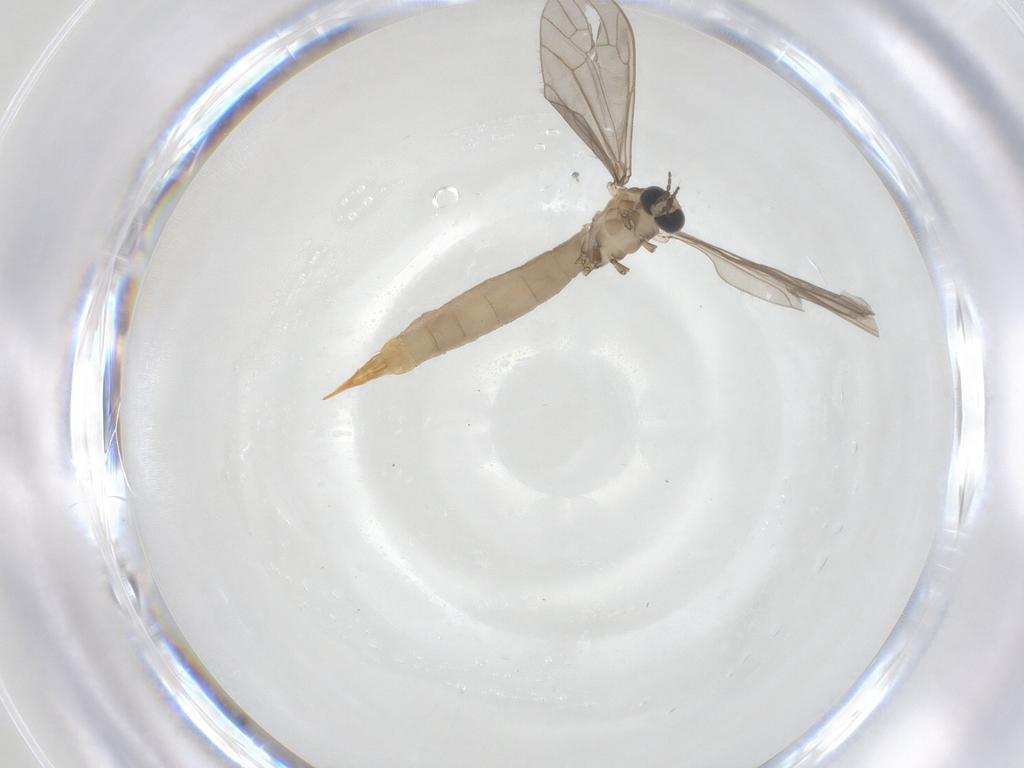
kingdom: Animalia
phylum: Arthropoda
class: Insecta
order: Diptera
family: Limoniidae
